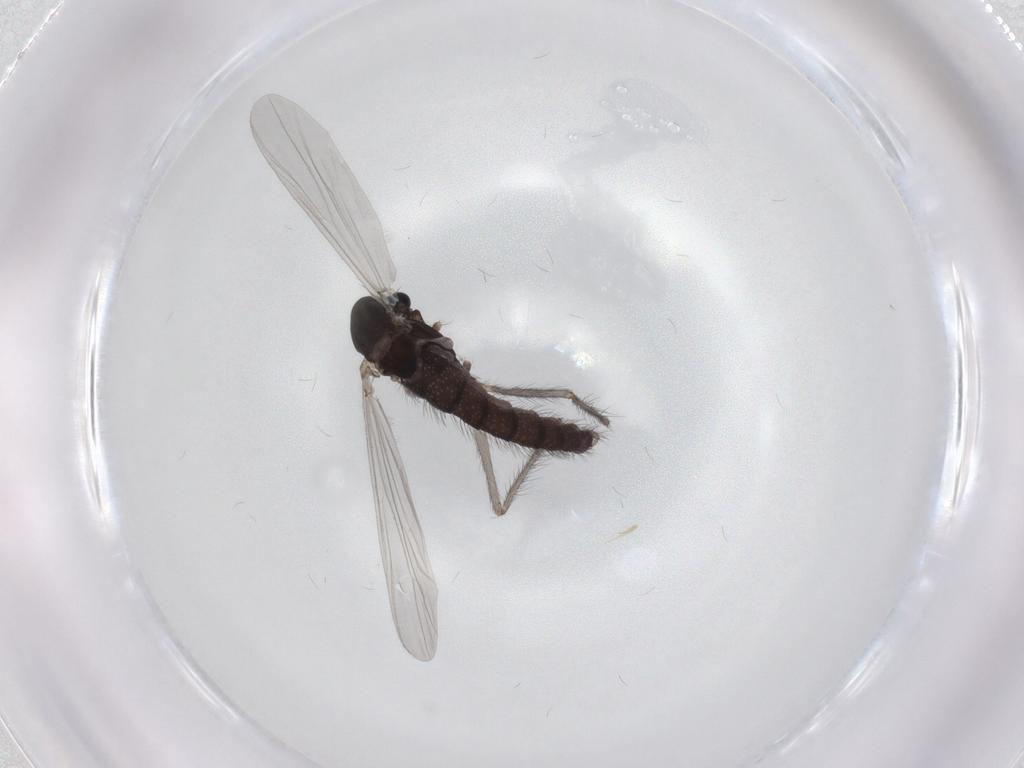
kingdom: Animalia
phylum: Arthropoda
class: Insecta
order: Diptera
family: Chironomidae
